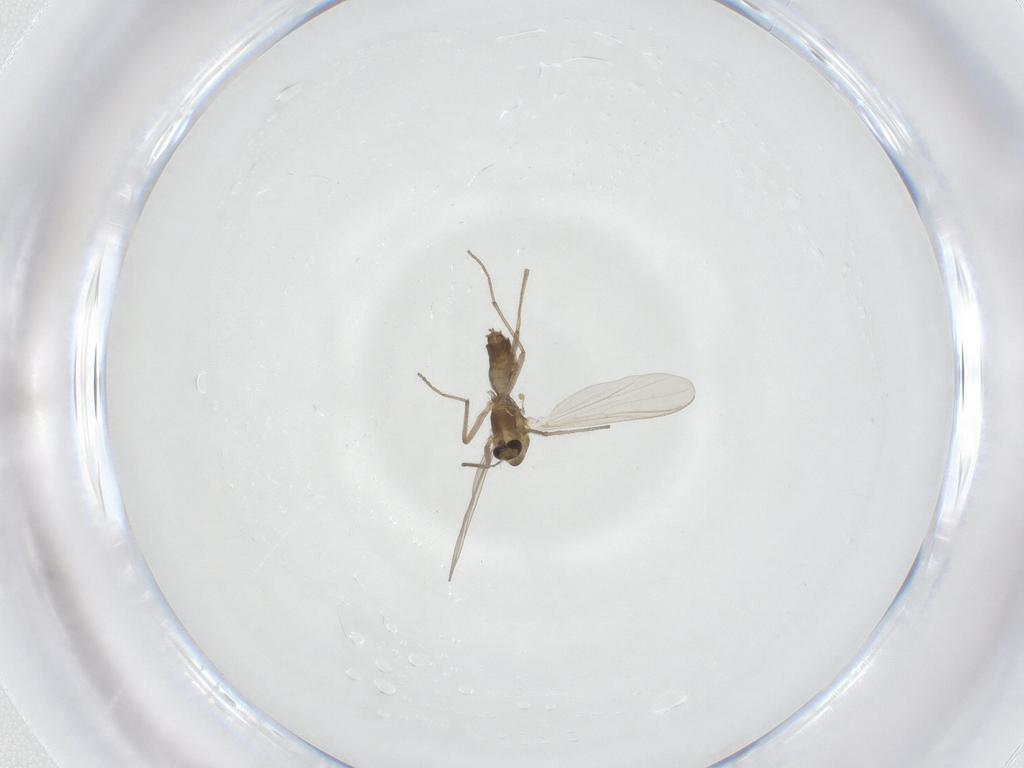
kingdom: Animalia
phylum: Arthropoda
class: Insecta
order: Diptera
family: Chironomidae
